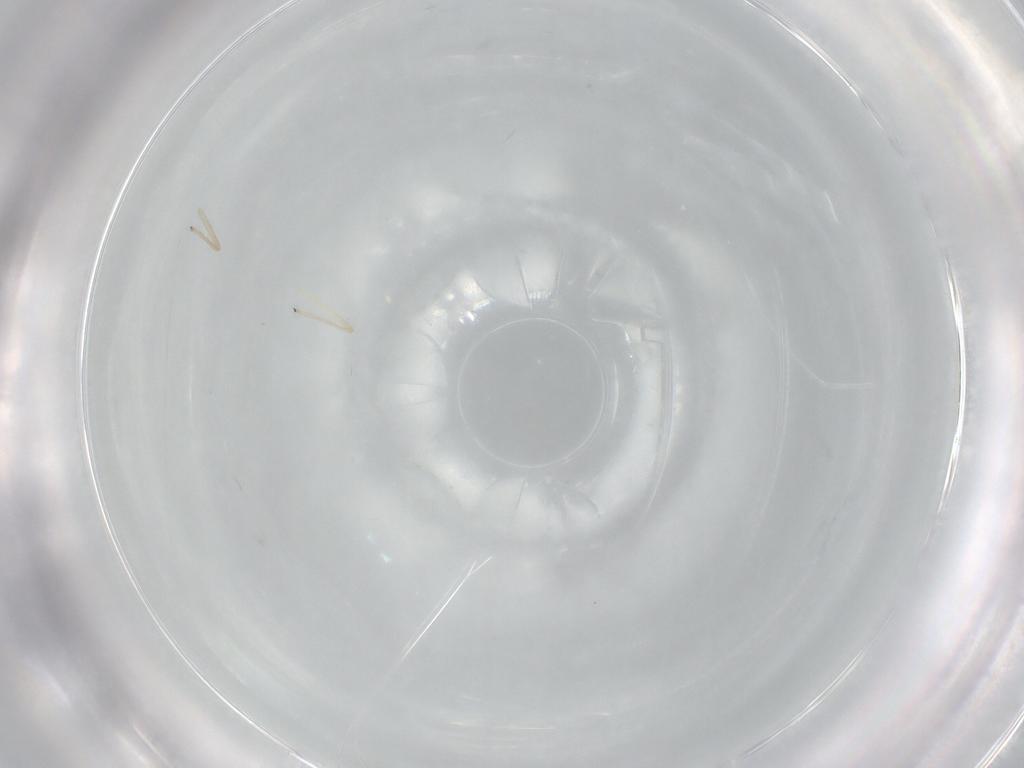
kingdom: Animalia
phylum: Arthropoda
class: Insecta
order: Diptera
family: Chironomidae
